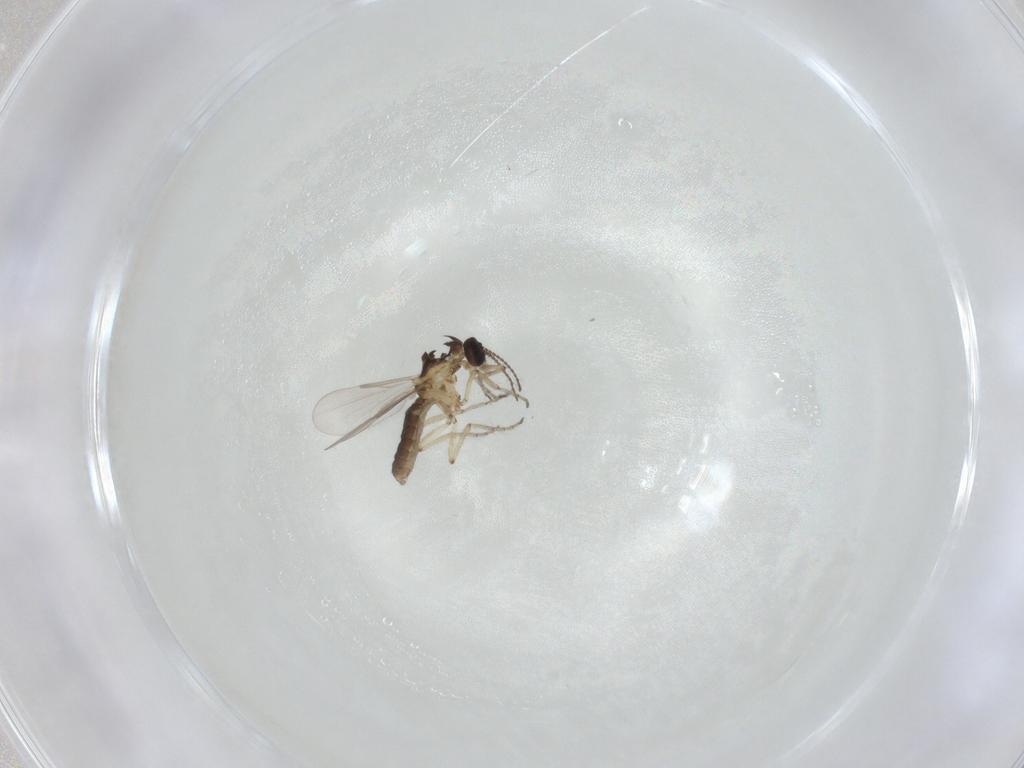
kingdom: Animalia
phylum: Arthropoda
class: Insecta
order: Diptera
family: Ceratopogonidae
